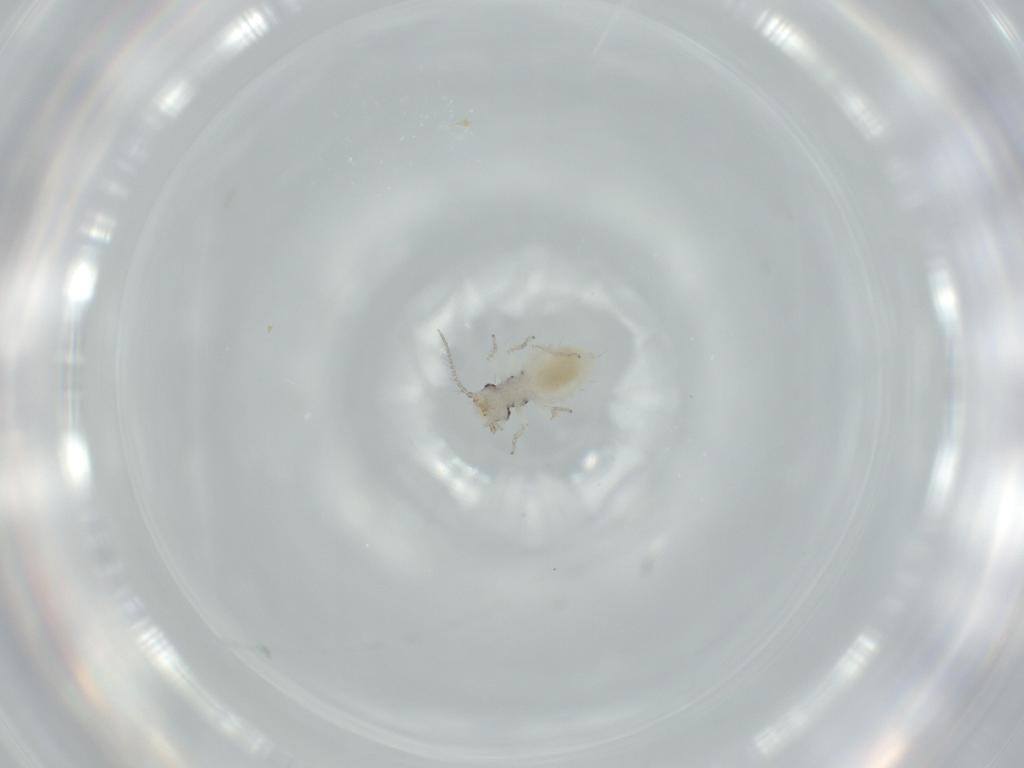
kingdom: Animalia
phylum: Arthropoda
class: Insecta
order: Psocodea
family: Pseudocaeciliidae
